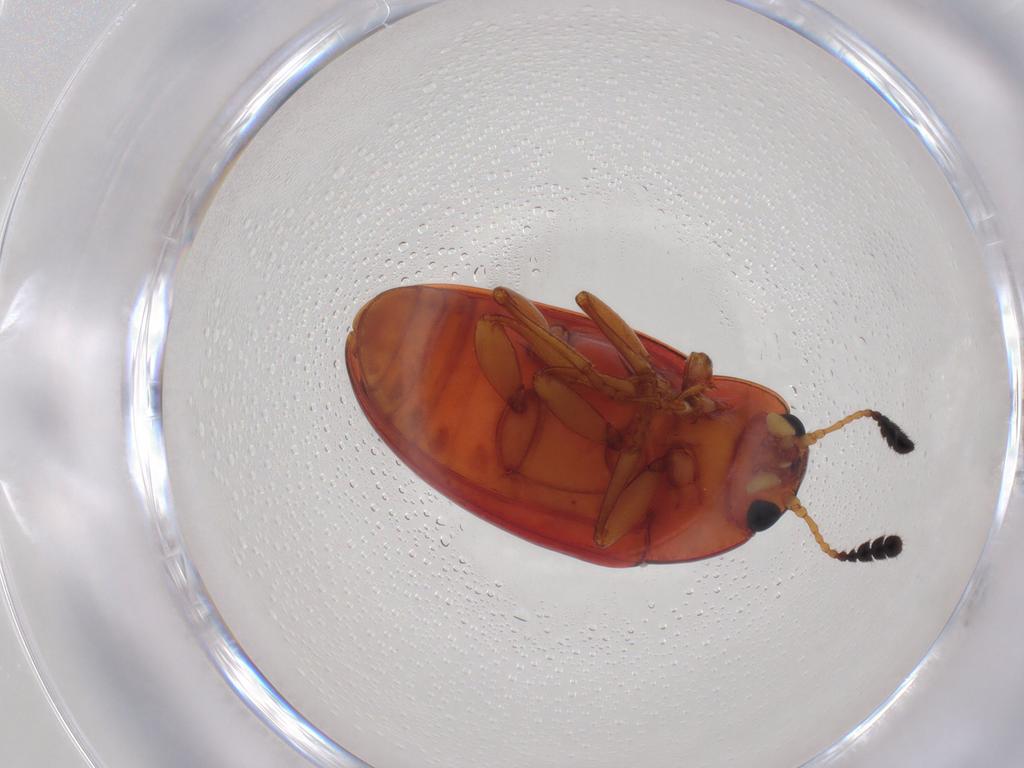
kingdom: Animalia
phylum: Arthropoda
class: Insecta
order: Coleoptera
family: Erotylidae
